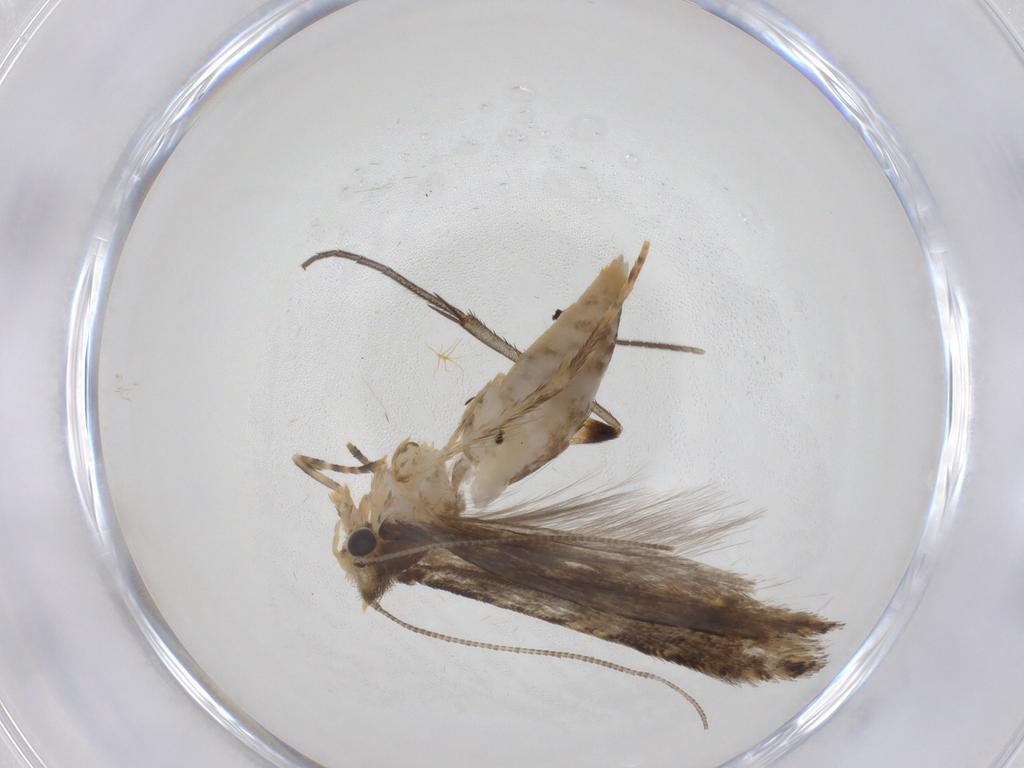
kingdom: Animalia
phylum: Arthropoda
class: Insecta
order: Lepidoptera
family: Tineidae
